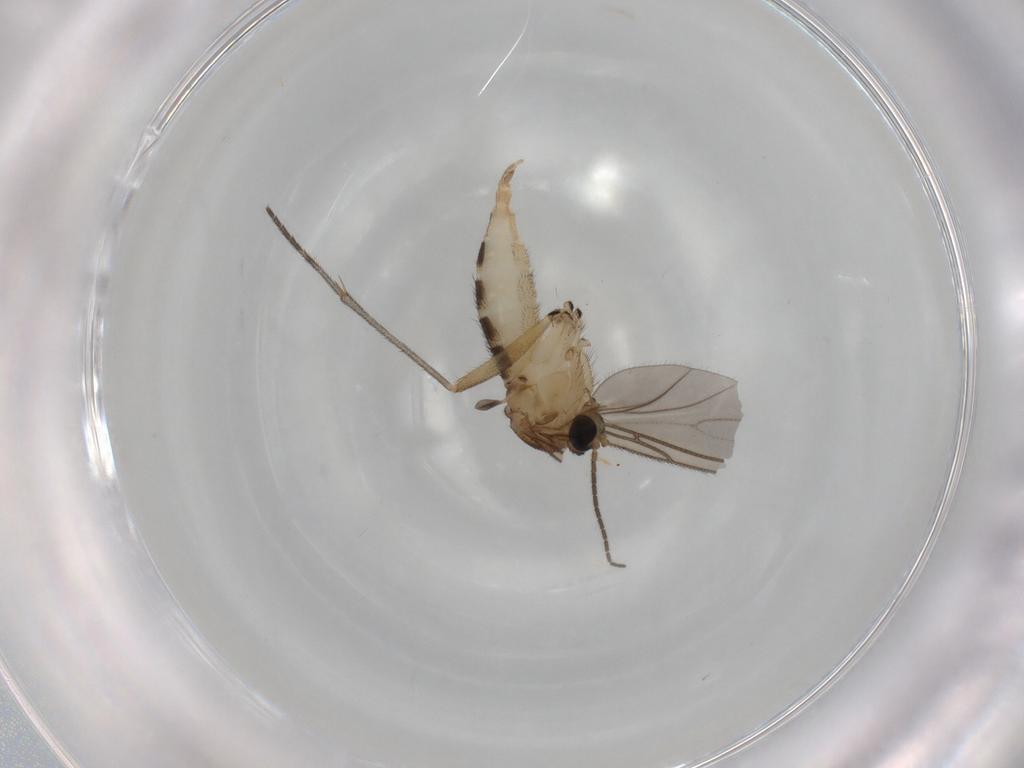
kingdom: Animalia
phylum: Arthropoda
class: Insecta
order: Diptera
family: Sciaridae
